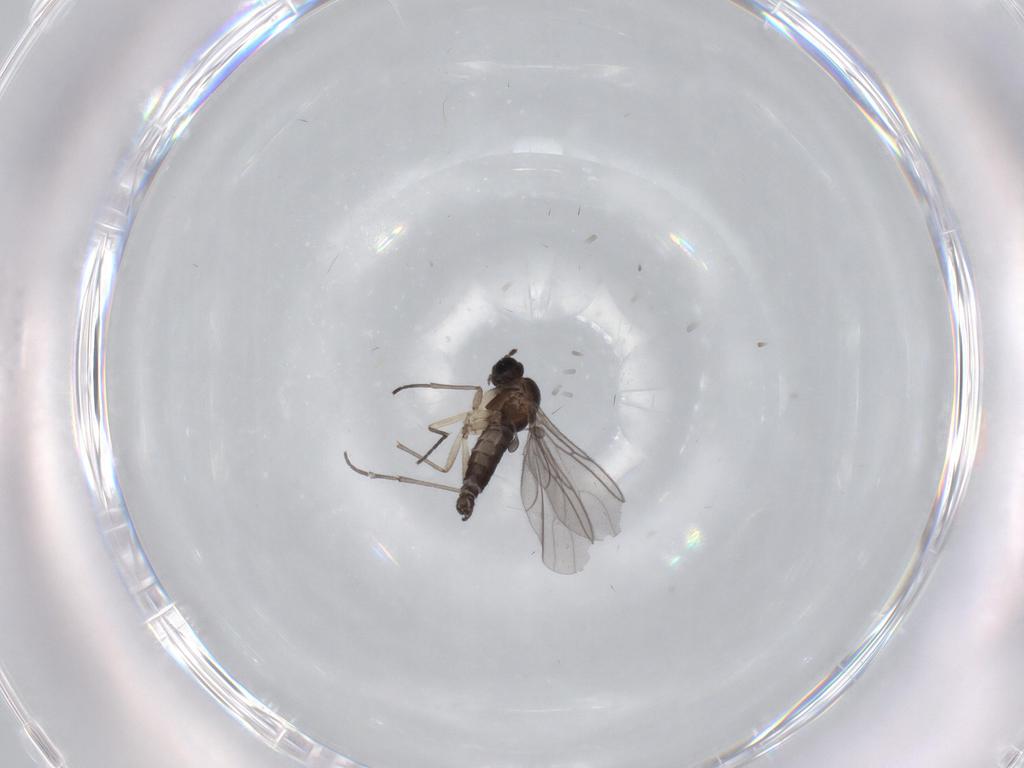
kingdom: Animalia
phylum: Arthropoda
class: Insecta
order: Diptera
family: Sciaridae
